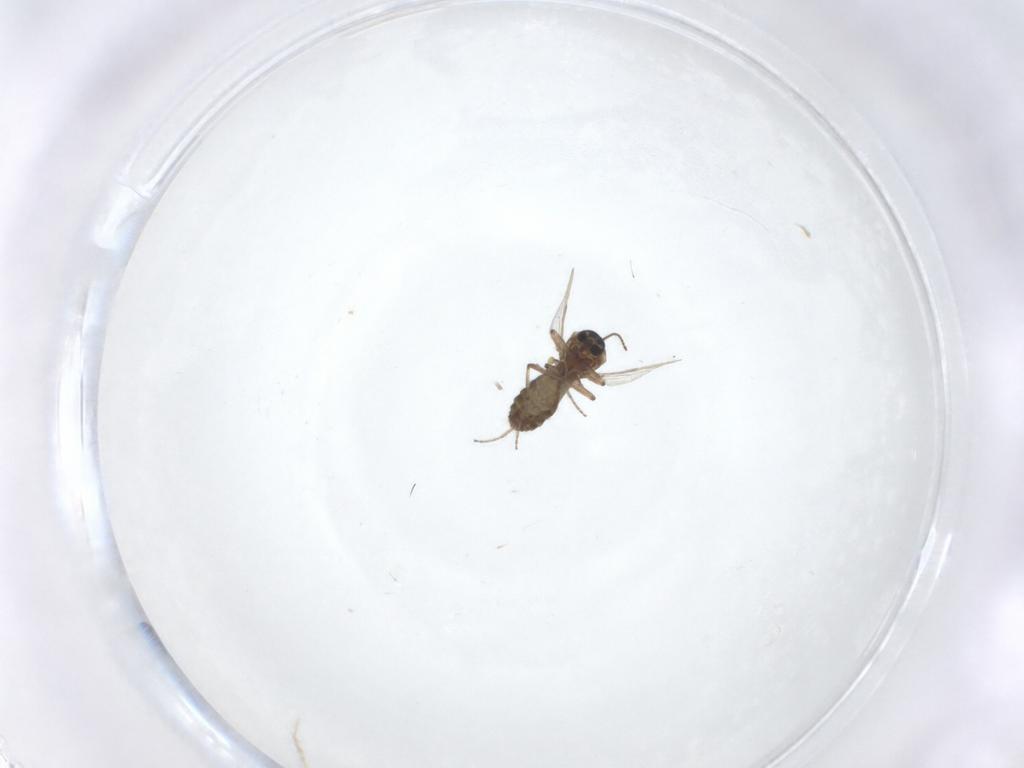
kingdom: Animalia
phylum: Arthropoda
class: Insecta
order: Diptera
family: Ceratopogonidae
